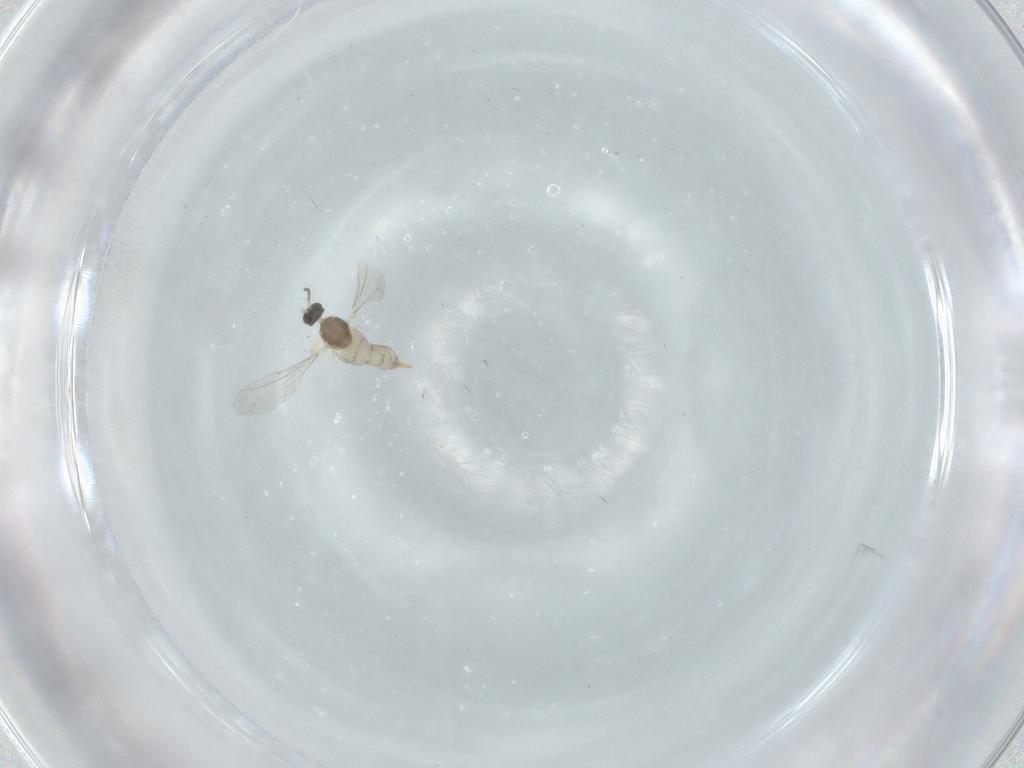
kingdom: Animalia
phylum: Arthropoda
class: Insecta
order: Diptera
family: Cecidomyiidae
